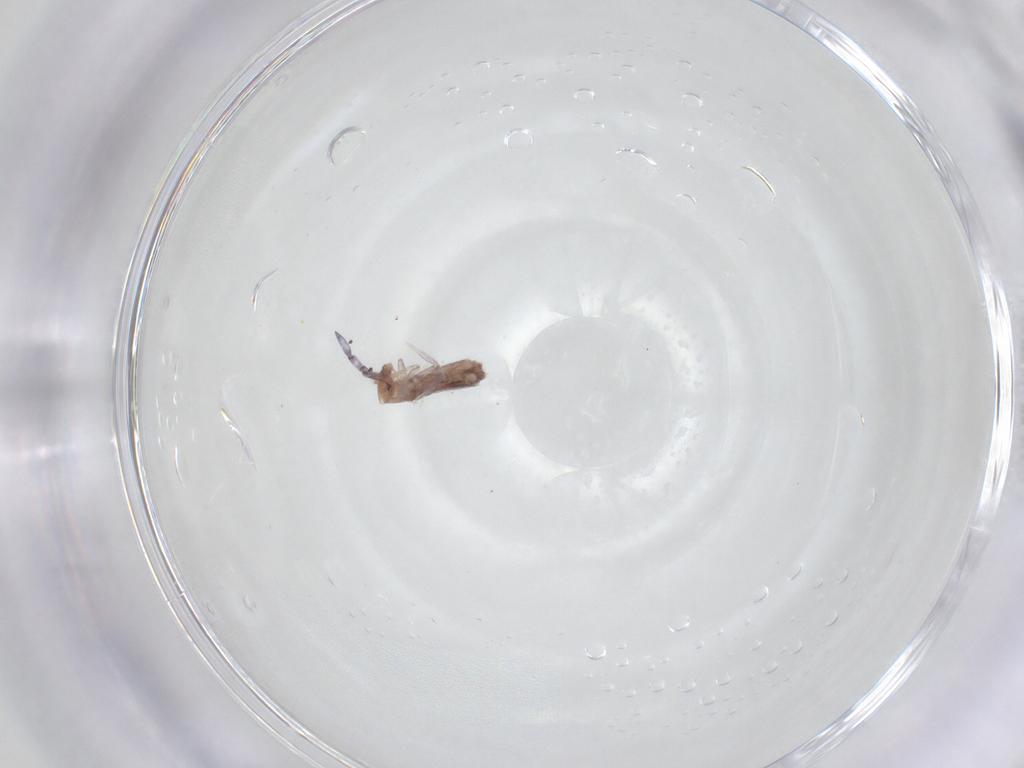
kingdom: Animalia
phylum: Arthropoda
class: Collembola
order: Entomobryomorpha
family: Entomobryidae
